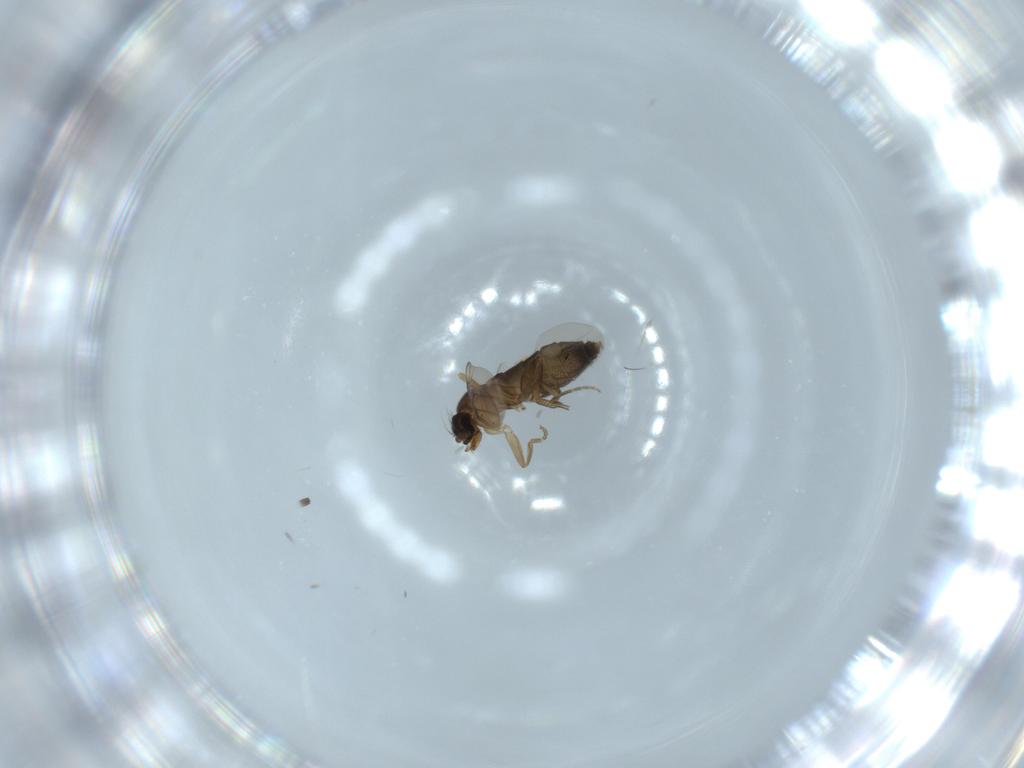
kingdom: Animalia
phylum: Arthropoda
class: Insecta
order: Diptera
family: Phoridae
